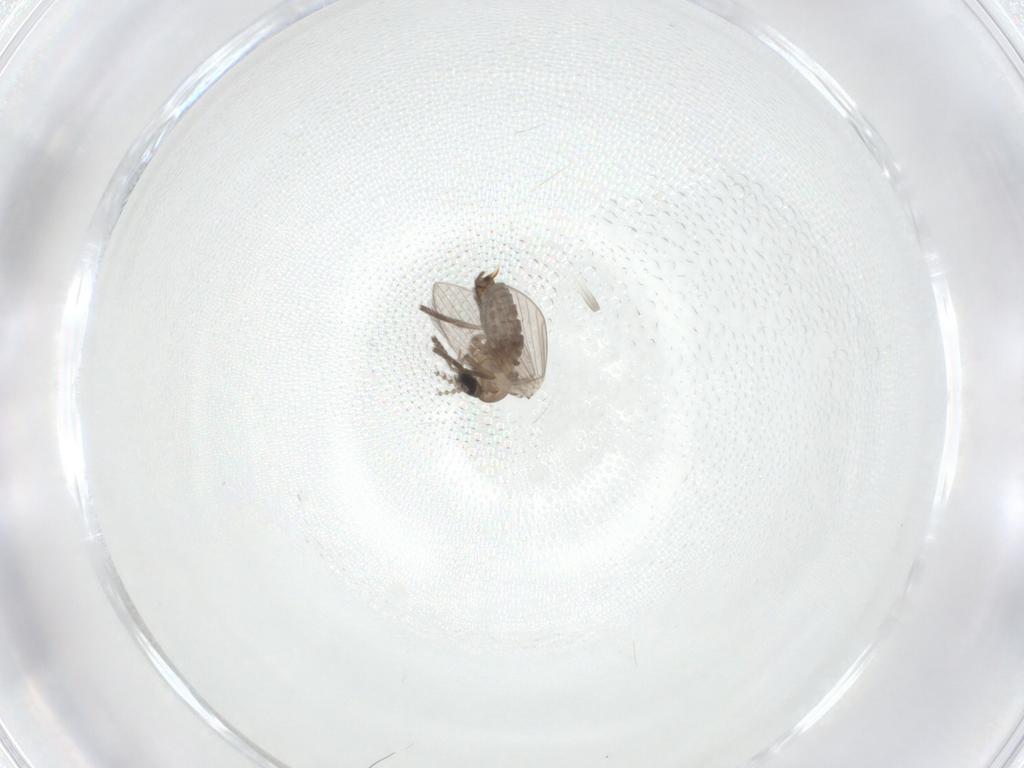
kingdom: Animalia
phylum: Arthropoda
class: Insecta
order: Diptera
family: Psychodidae
